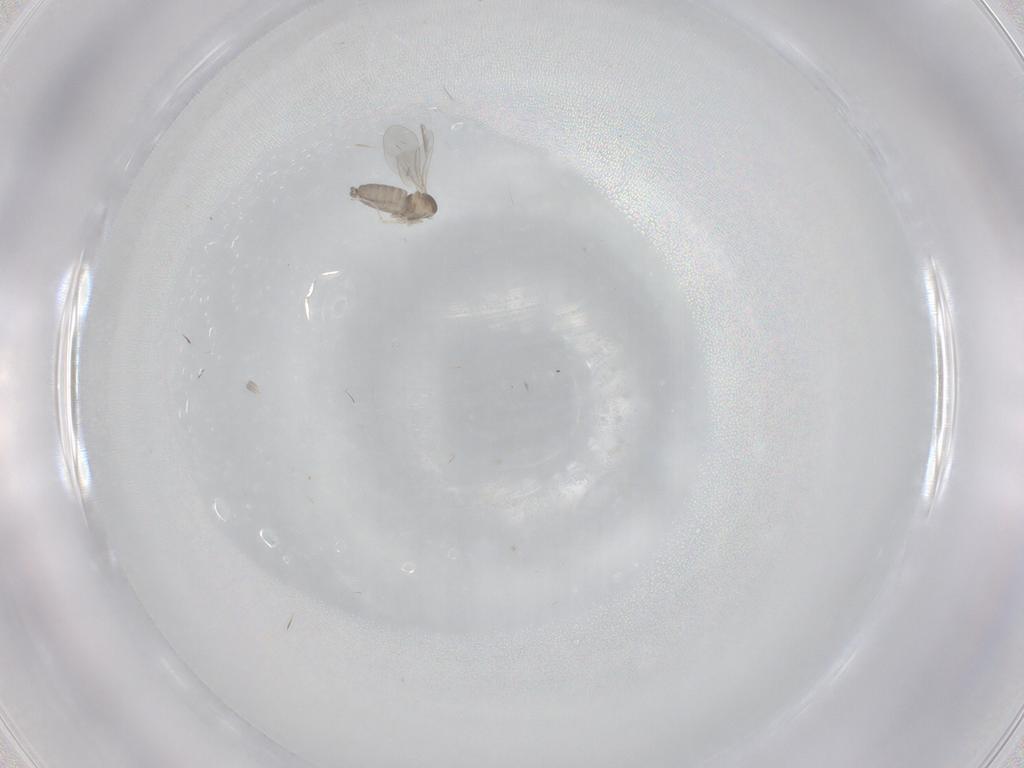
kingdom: Animalia
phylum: Arthropoda
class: Insecta
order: Diptera
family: Cecidomyiidae
